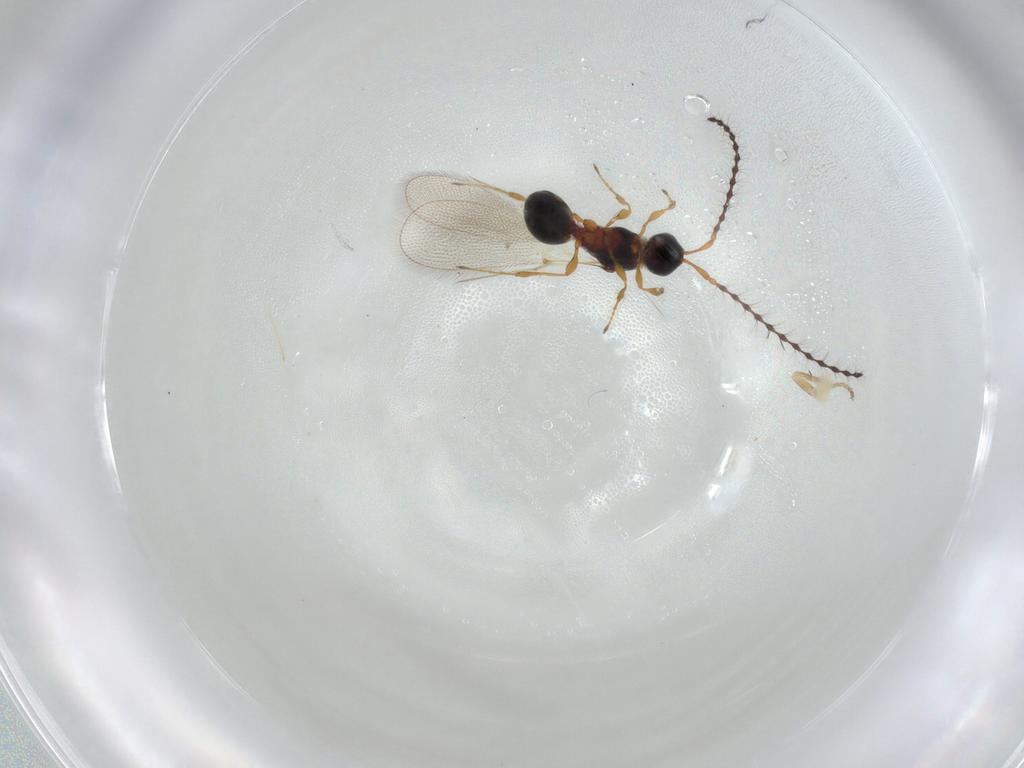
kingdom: Animalia
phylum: Arthropoda
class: Insecta
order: Diptera
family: Chloropidae
